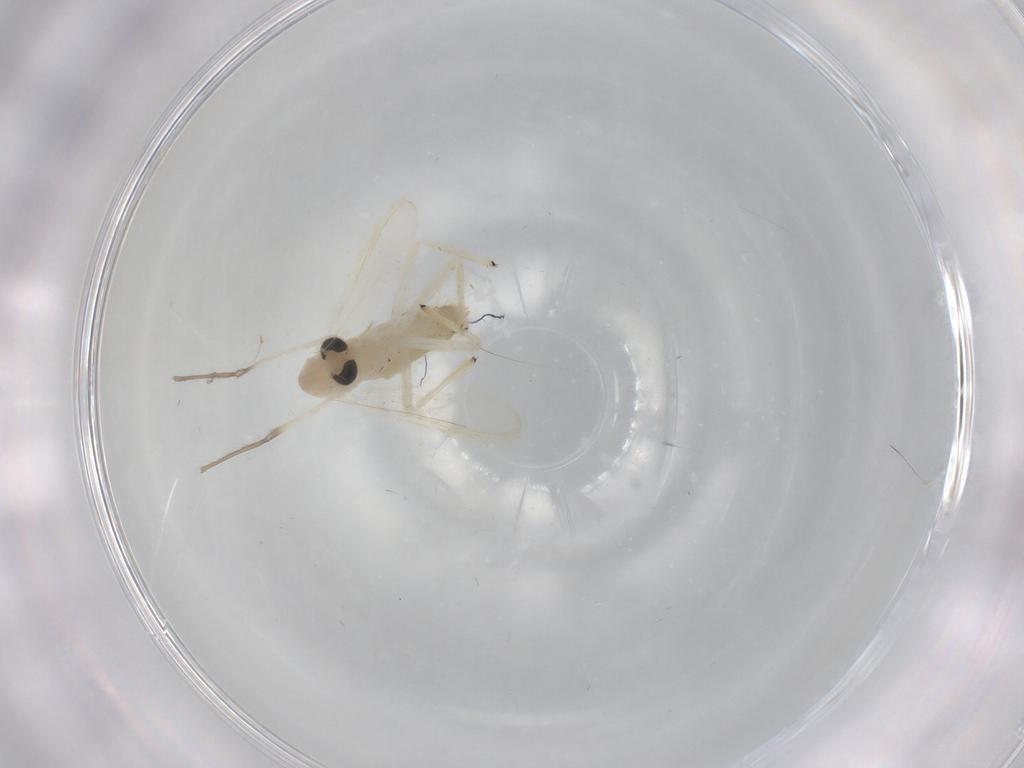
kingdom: Animalia
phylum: Arthropoda
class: Insecta
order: Diptera
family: Chironomidae
